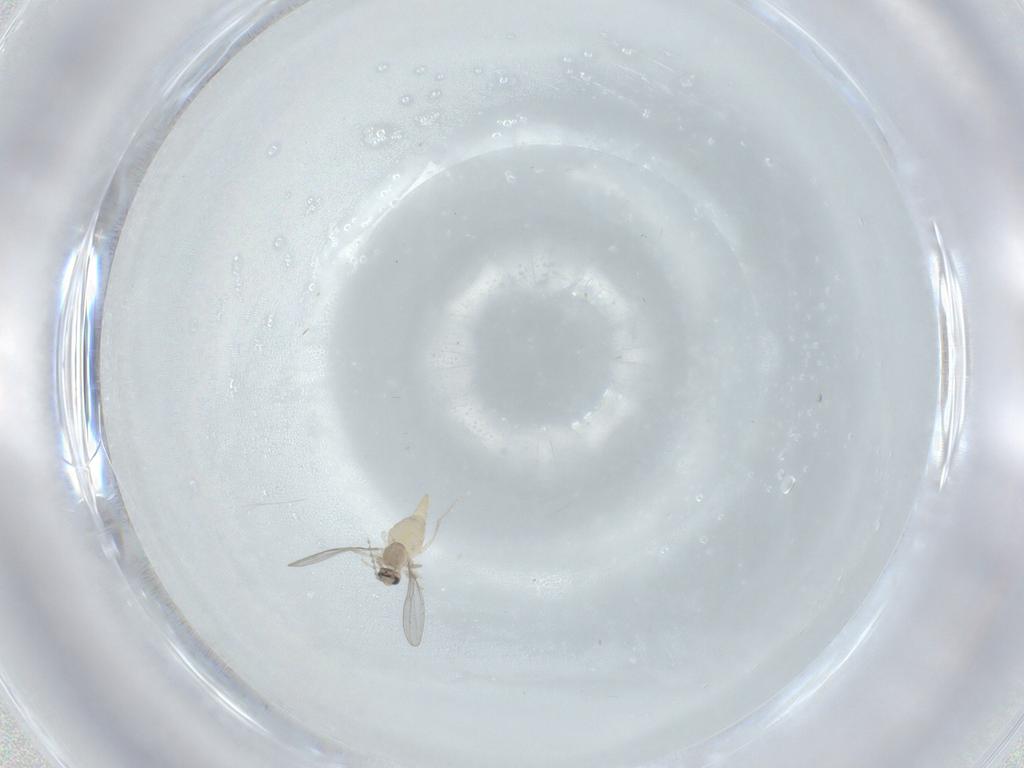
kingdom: Animalia
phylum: Arthropoda
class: Insecta
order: Diptera
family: Cecidomyiidae
